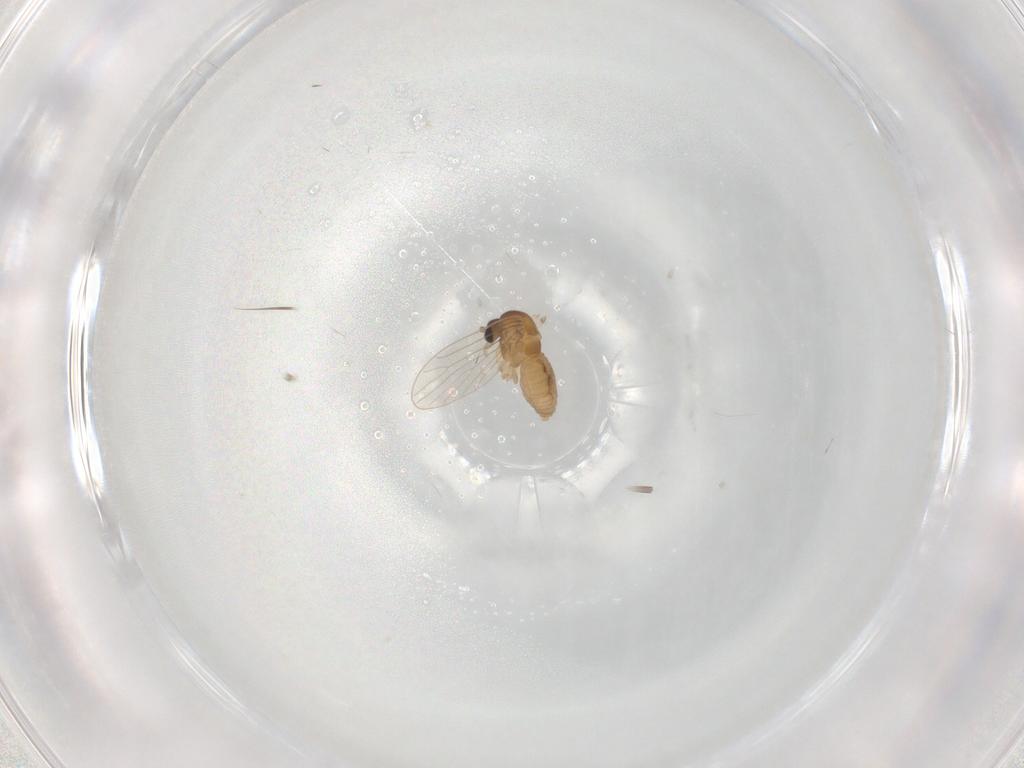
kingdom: Animalia
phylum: Arthropoda
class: Insecta
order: Diptera
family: Psychodidae
